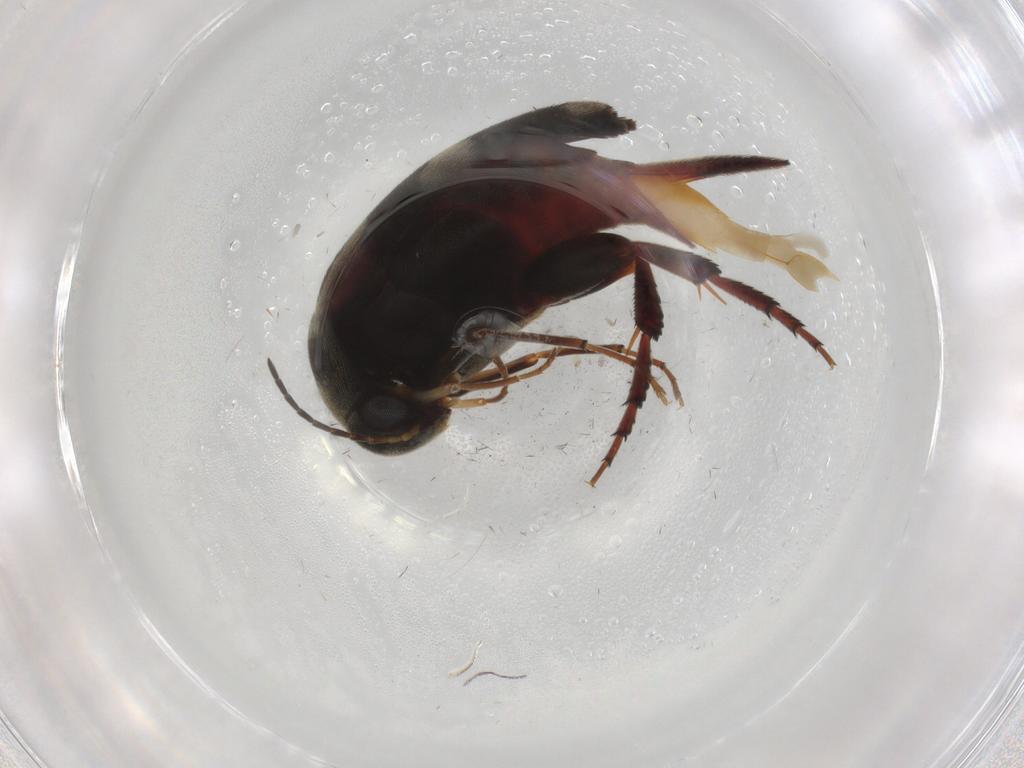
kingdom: Animalia
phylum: Arthropoda
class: Insecta
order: Coleoptera
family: Mordellidae
